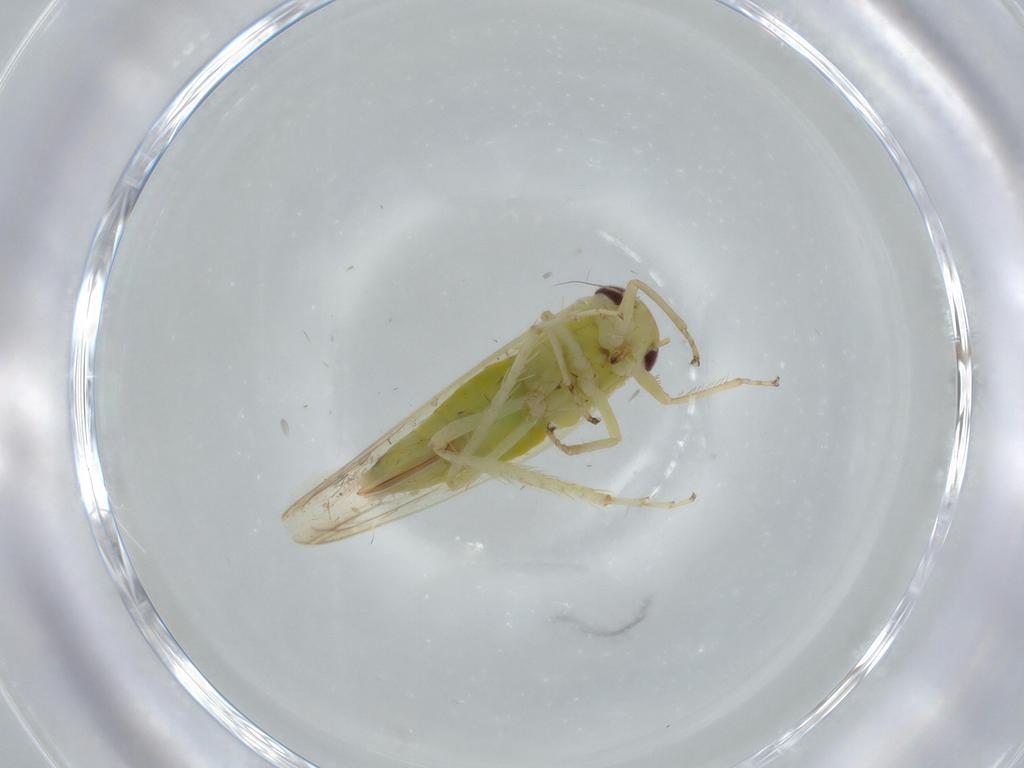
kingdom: Animalia
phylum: Arthropoda
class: Insecta
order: Hemiptera
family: Cicadellidae
